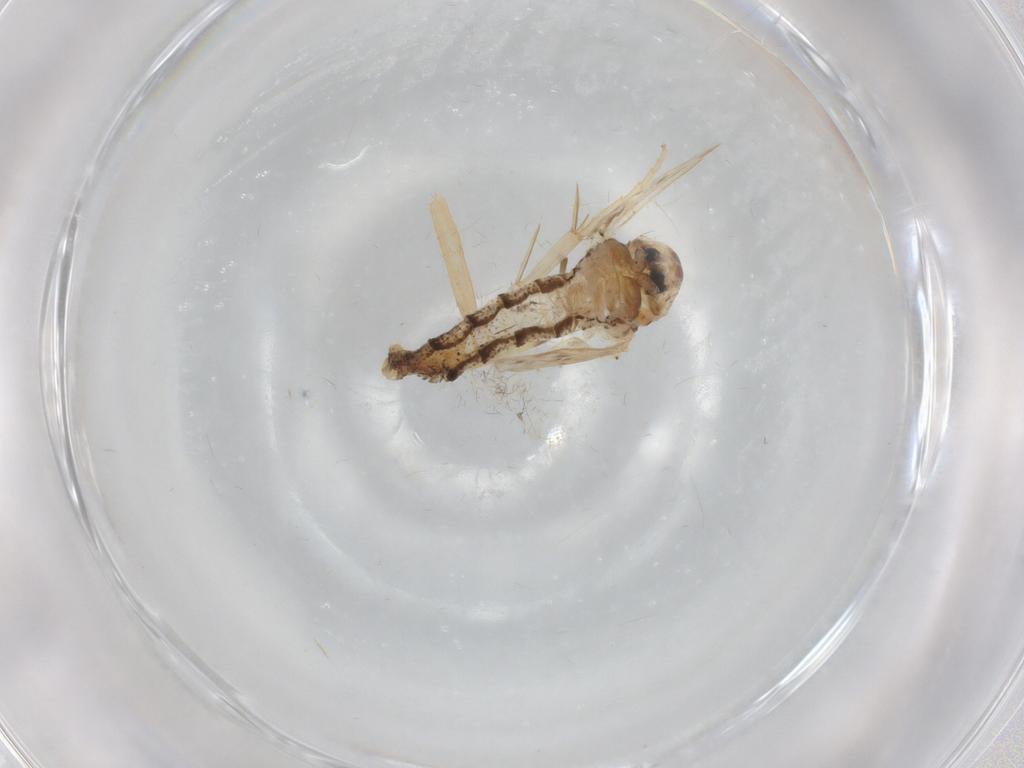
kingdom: Animalia
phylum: Arthropoda
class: Insecta
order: Diptera
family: Chaoboridae
